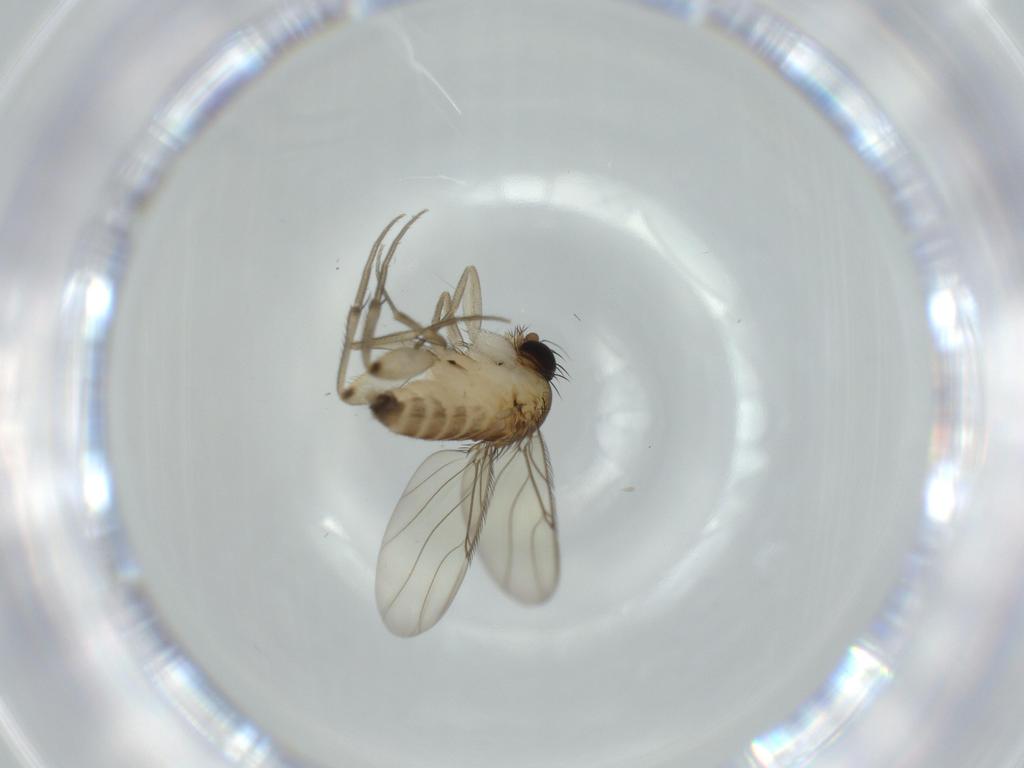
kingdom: Animalia
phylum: Arthropoda
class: Insecta
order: Diptera
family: Phoridae
